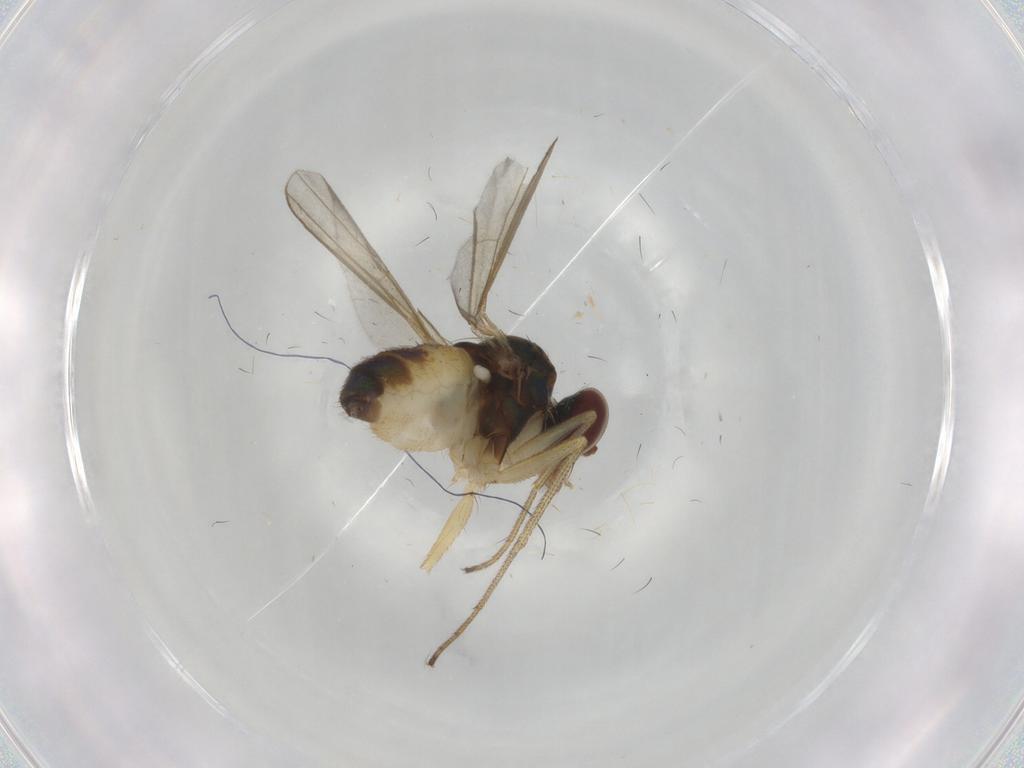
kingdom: Animalia
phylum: Arthropoda
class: Insecta
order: Diptera
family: Dolichopodidae
